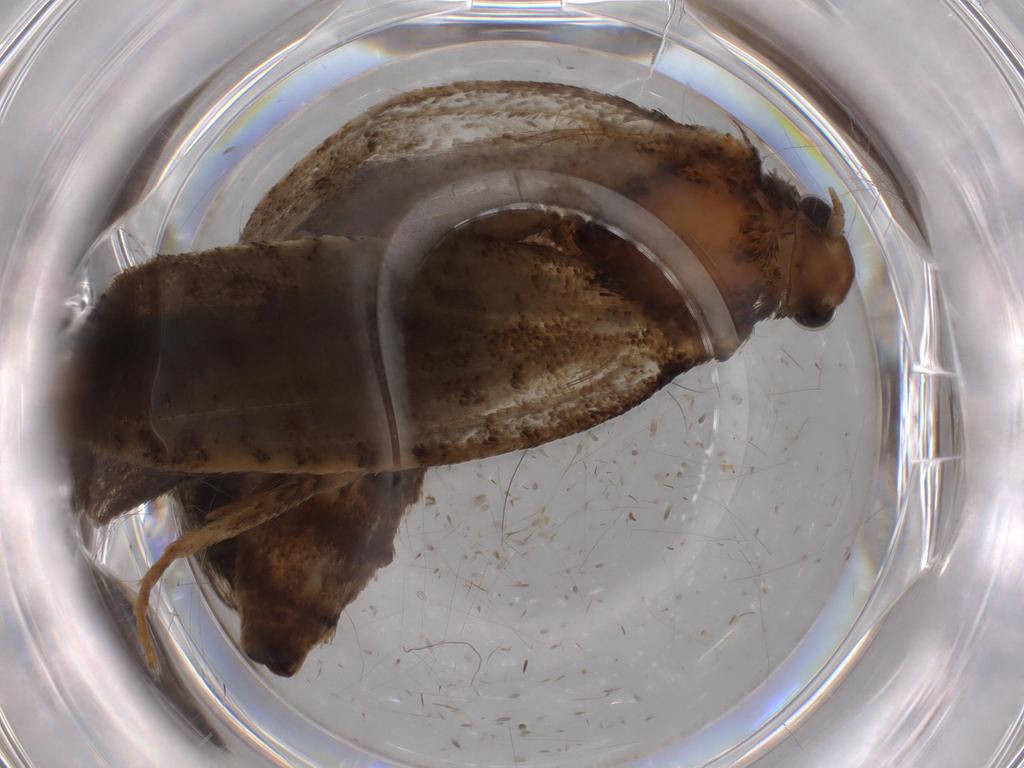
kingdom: Animalia
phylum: Arthropoda
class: Insecta
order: Lepidoptera
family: Tineidae
